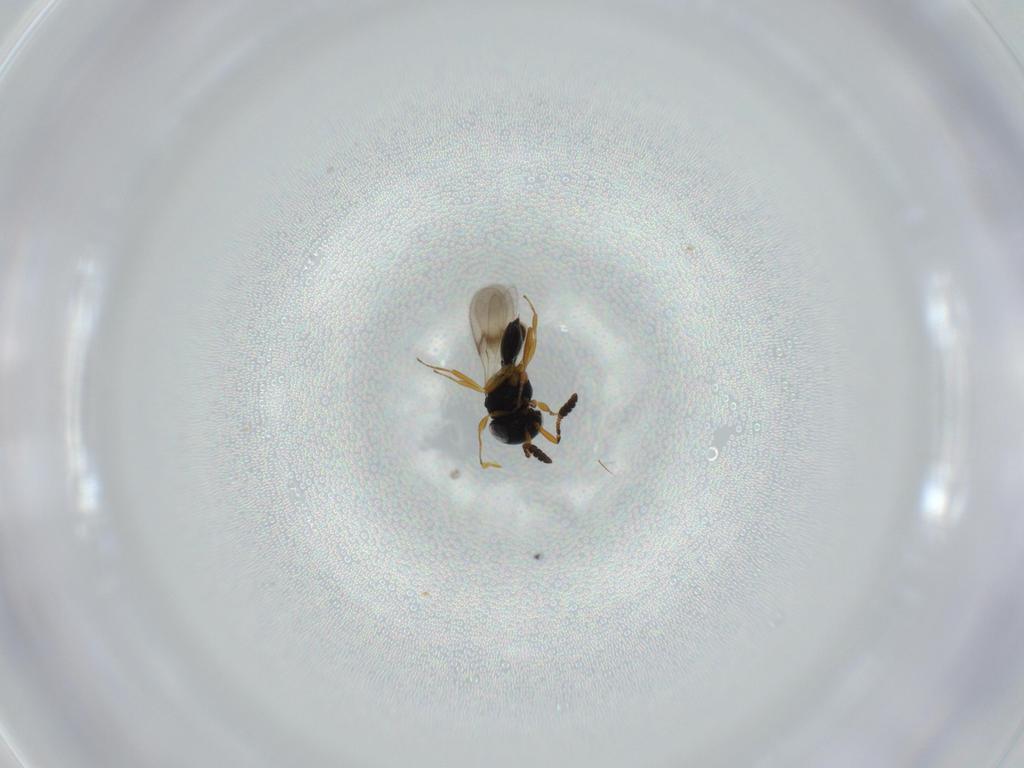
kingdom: Animalia
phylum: Arthropoda
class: Insecta
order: Hymenoptera
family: Scelionidae
